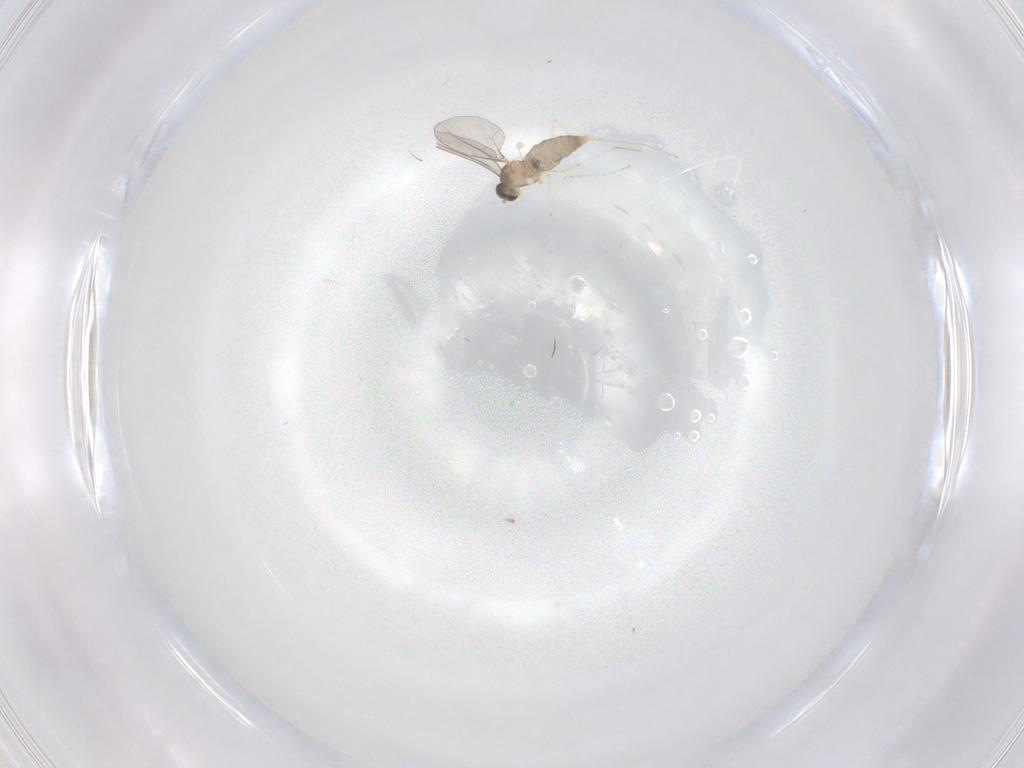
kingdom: Animalia
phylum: Arthropoda
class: Insecta
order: Diptera
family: Cecidomyiidae
